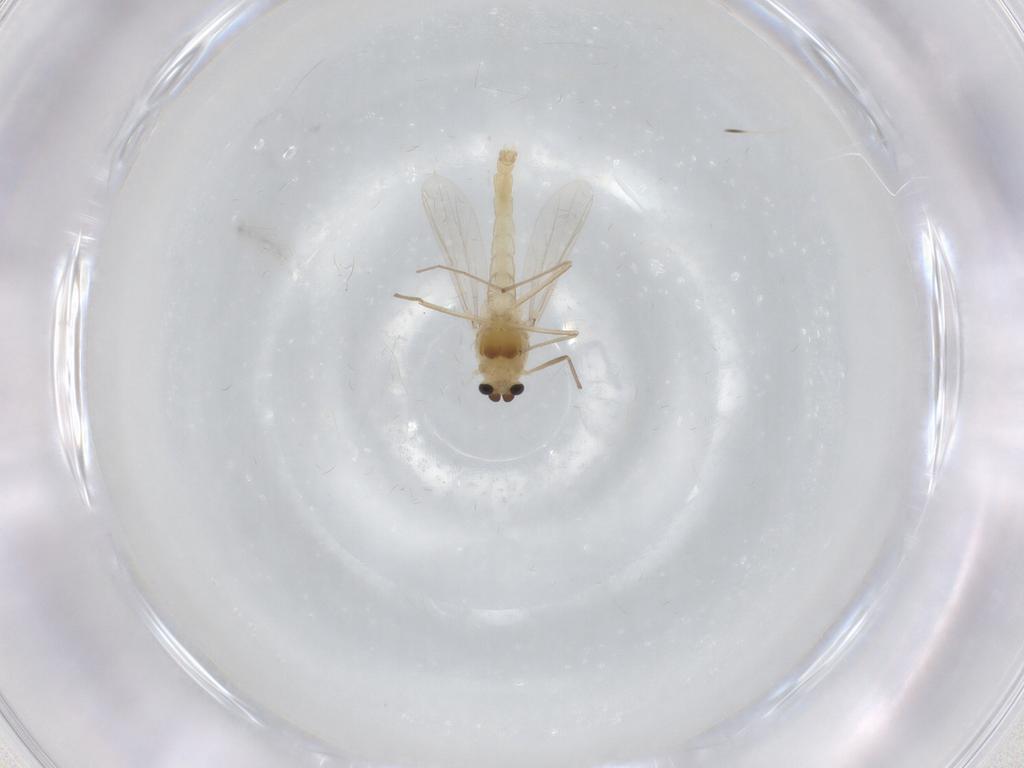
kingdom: Animalia
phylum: Arthropoda
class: Insecta
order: Diptera
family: Chironomidae
